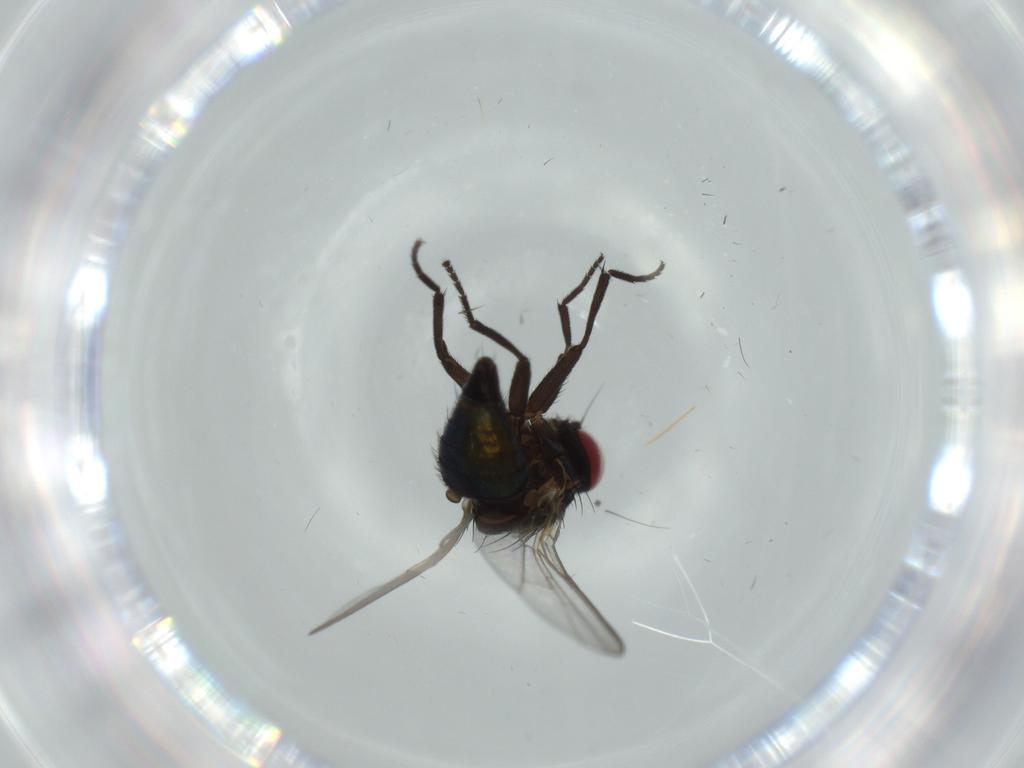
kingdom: Animalia
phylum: Arthropoda
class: Insecta
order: Diptera
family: Agromyzidae
